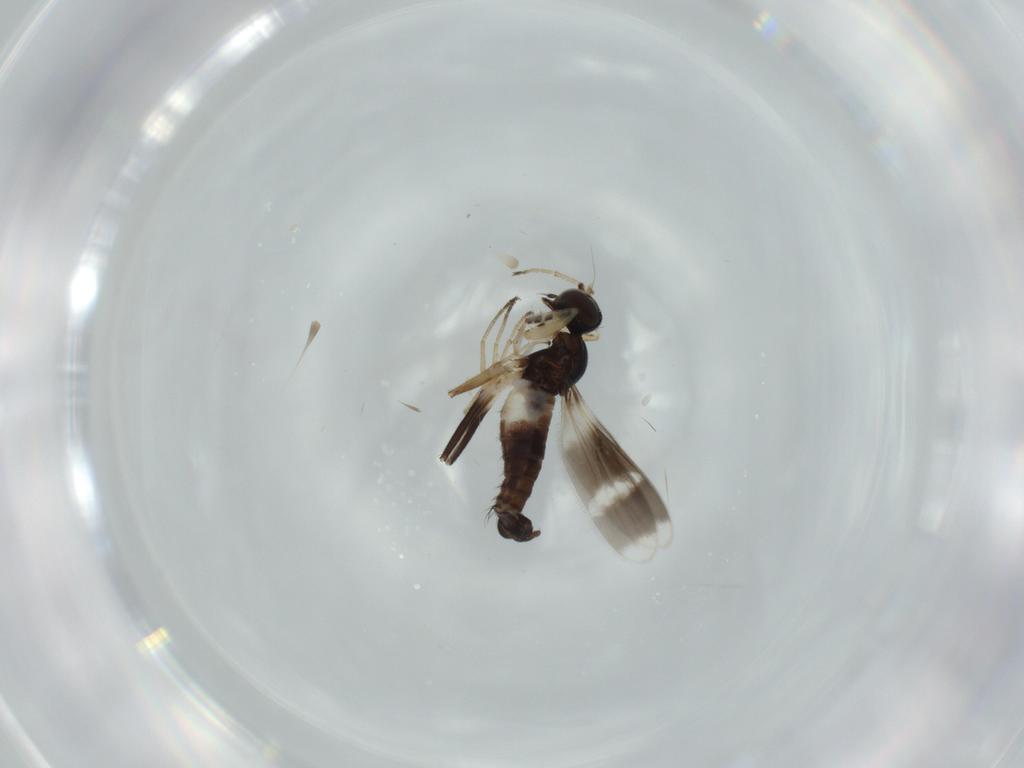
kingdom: Animalia
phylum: Arthropoda
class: Insecta
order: Diptera
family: Hybotidae
